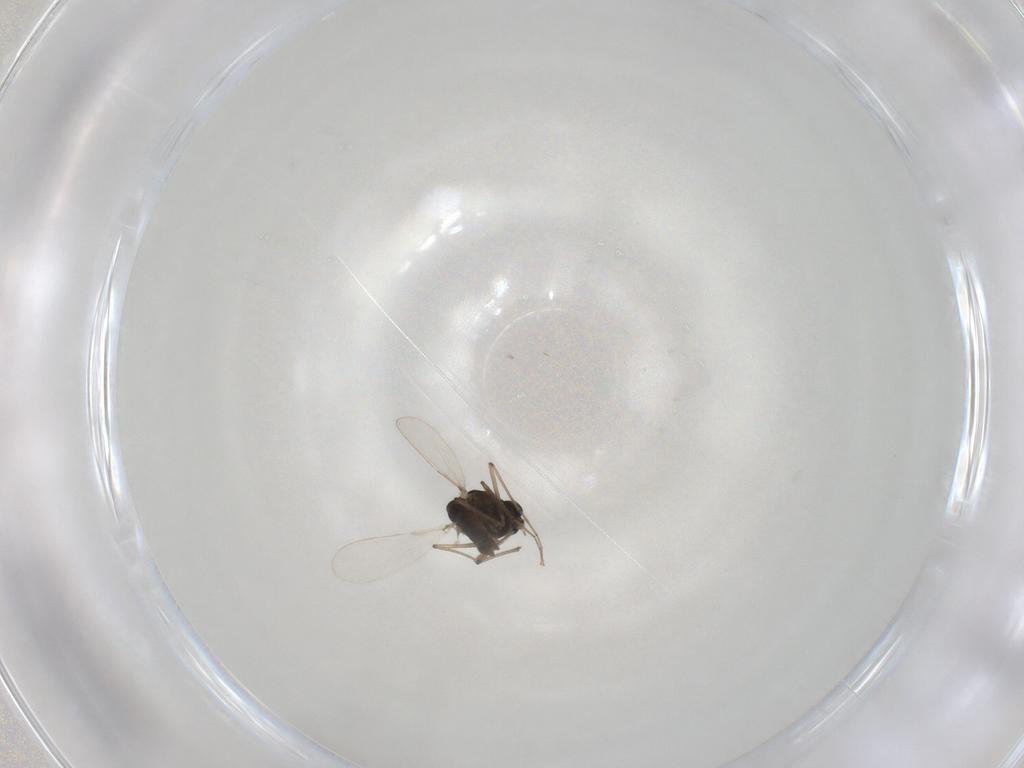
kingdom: Animalia
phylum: Arthropoda
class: Insecta
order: Diptera
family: Chironomidae
